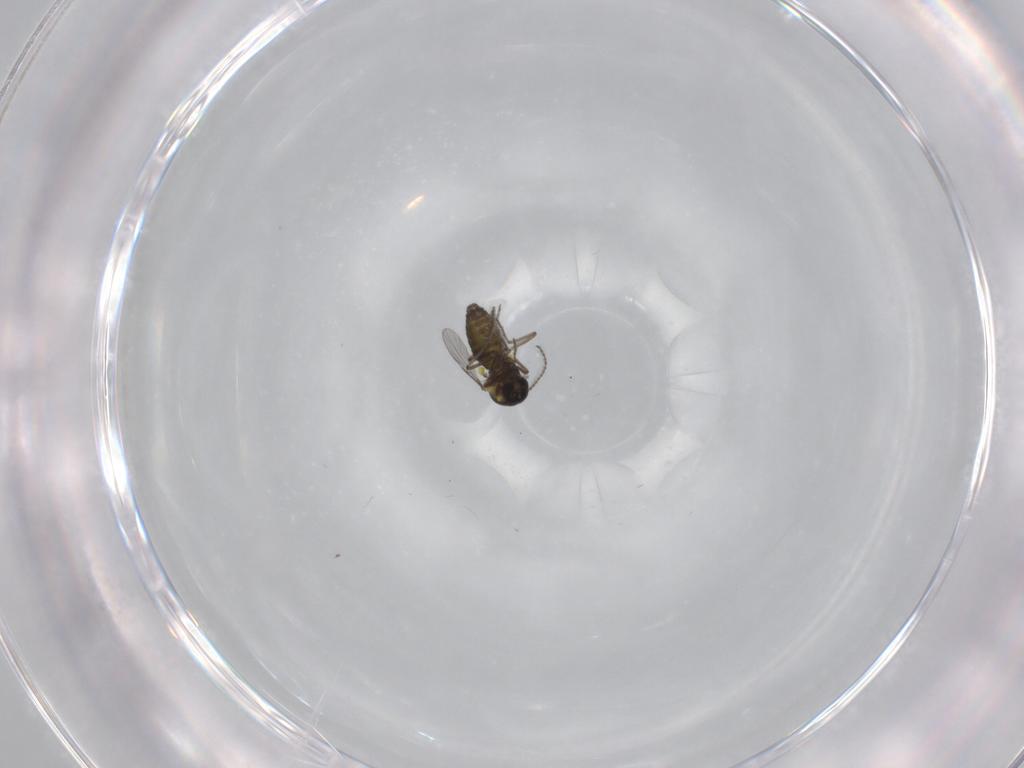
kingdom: Animalia
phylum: Arthropoda
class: Insecta
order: Diptera
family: Ceratopogonidae
